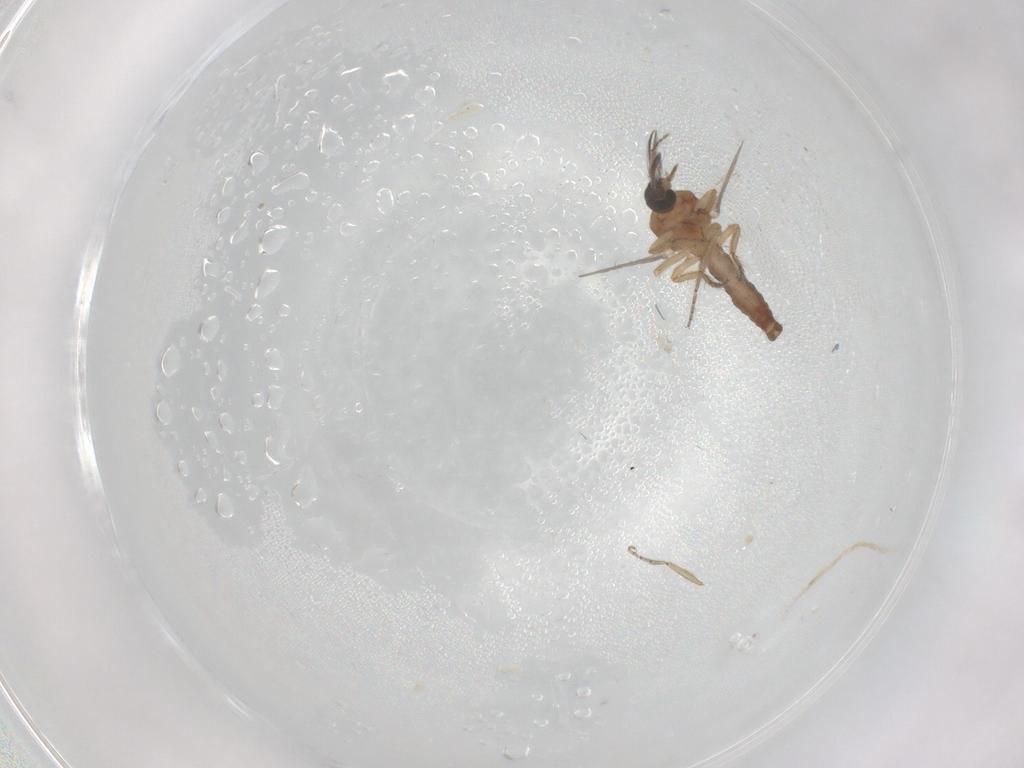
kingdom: Animalia
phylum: Arthropoda
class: Insecta
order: Diptera
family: Ceratopogonidae
